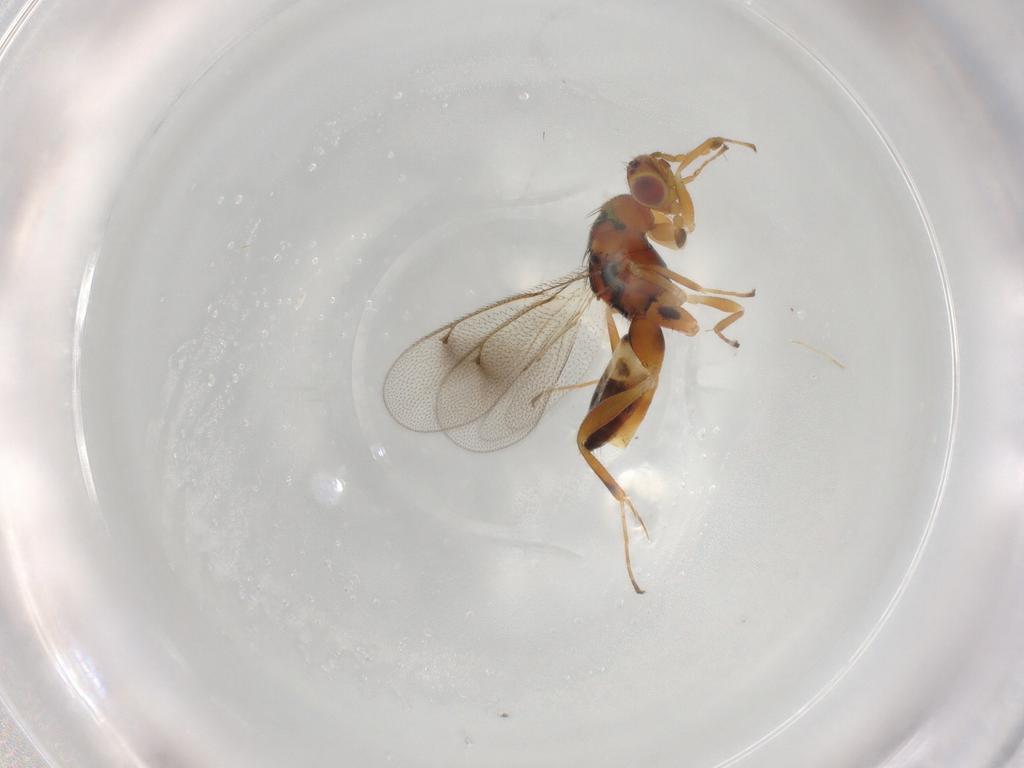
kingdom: Animalia
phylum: Arthropoda
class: Insecta
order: Hymenoptera
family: Eulophidae
